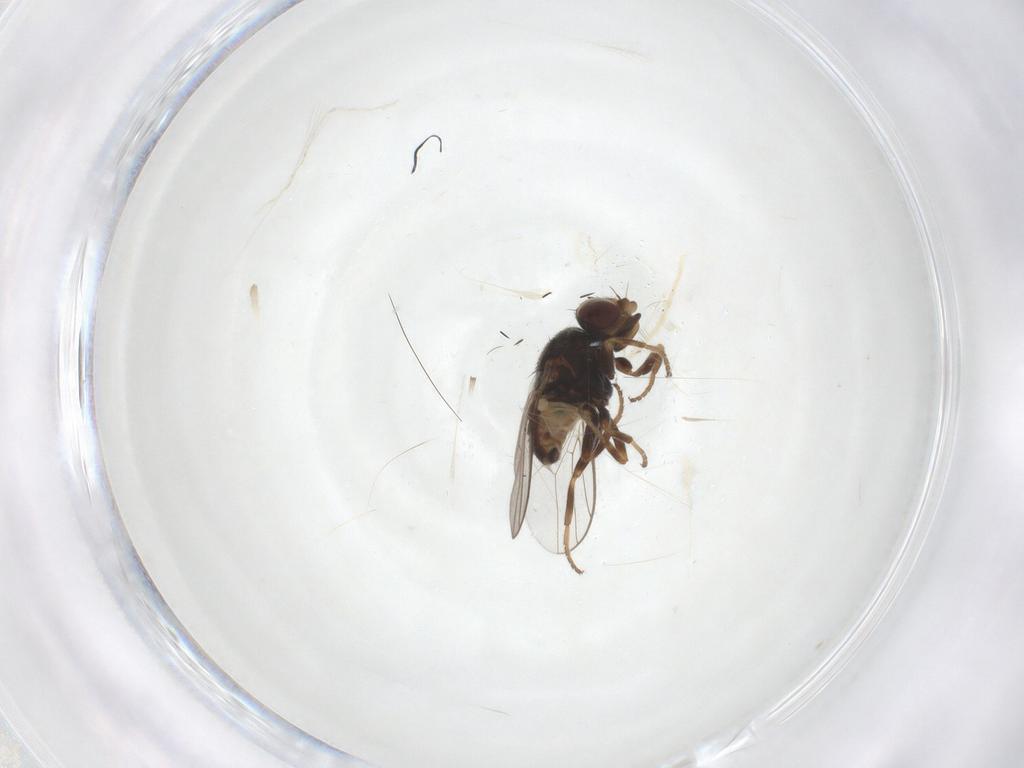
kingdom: Animalia
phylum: Arthropoda
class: Insecta
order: Diptera
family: Chloropidae
